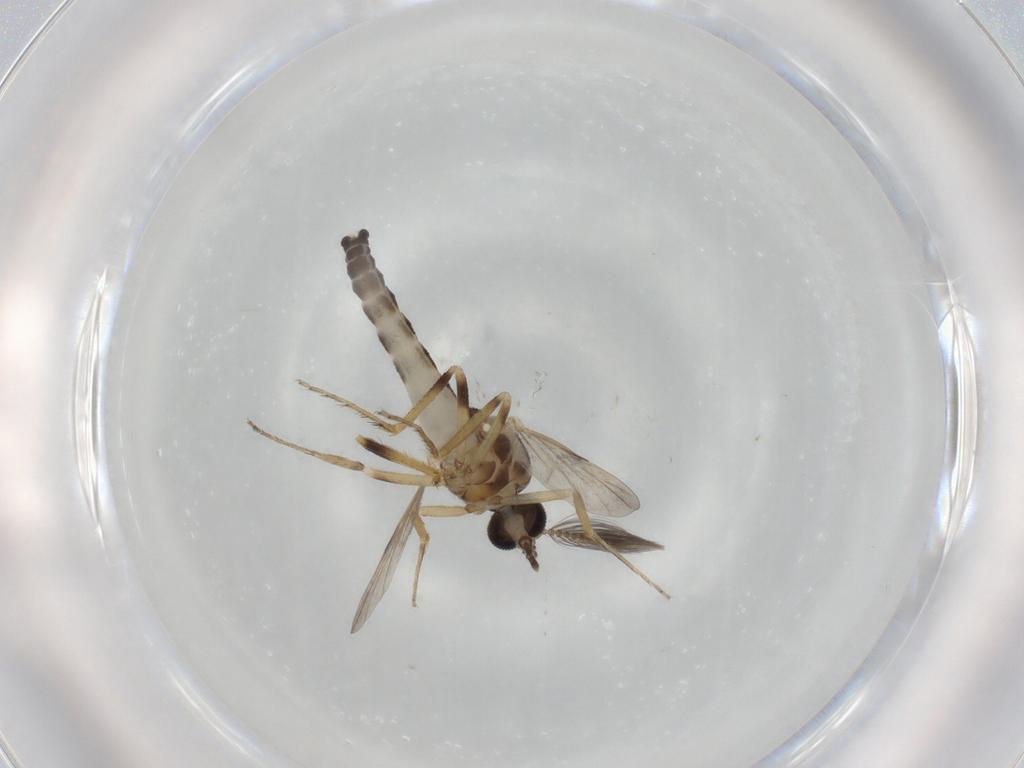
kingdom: Animalia
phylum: Arthropoda
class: Insecta
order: Diptera
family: Ceratopogonidae
